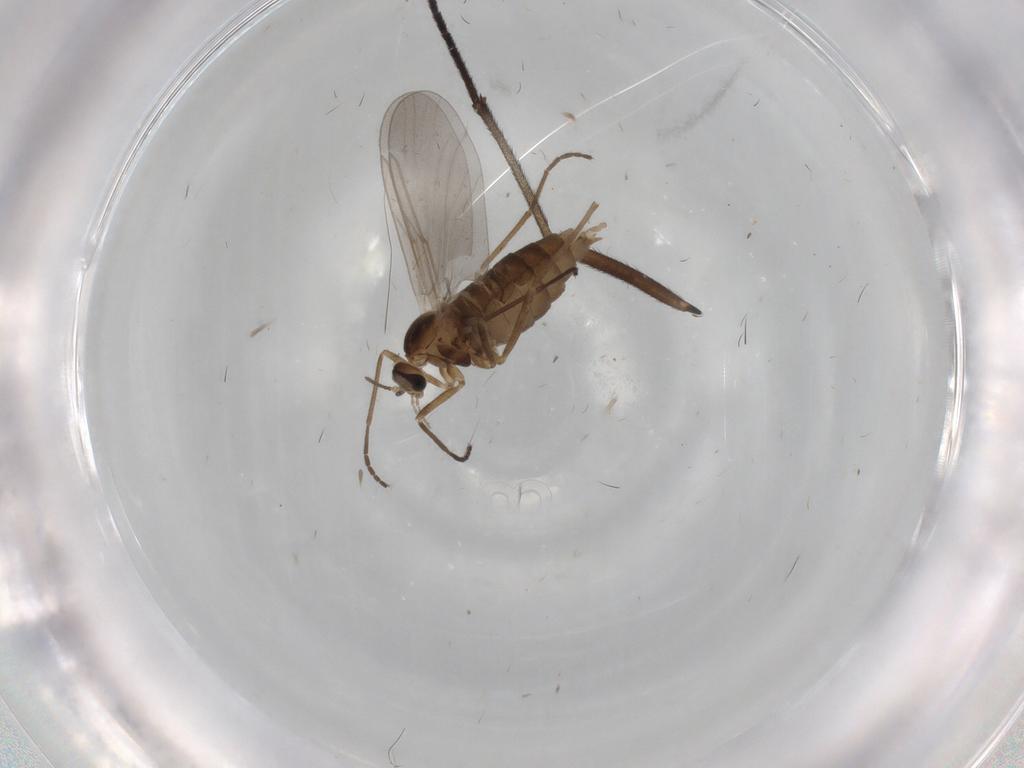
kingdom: Animalia
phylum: Arthropoda
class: Insecta
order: Diptera
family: Cecidomyiidae
